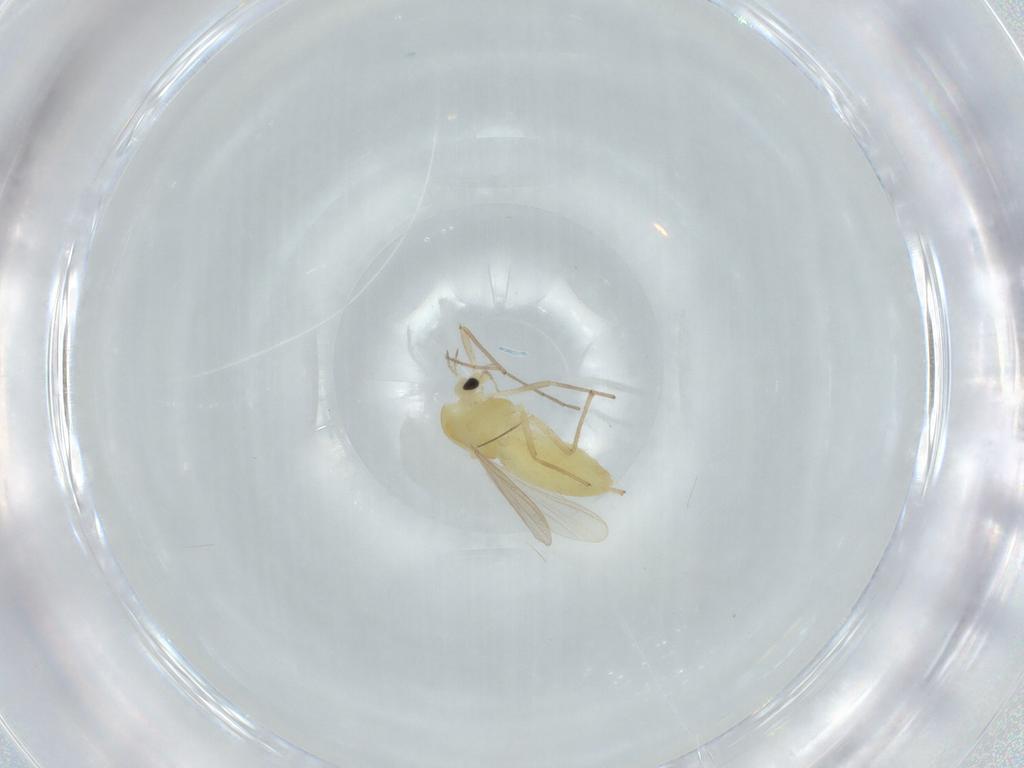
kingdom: Animalia
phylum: Arthropoda
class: Insecta
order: Diptera
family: Chironomidae
